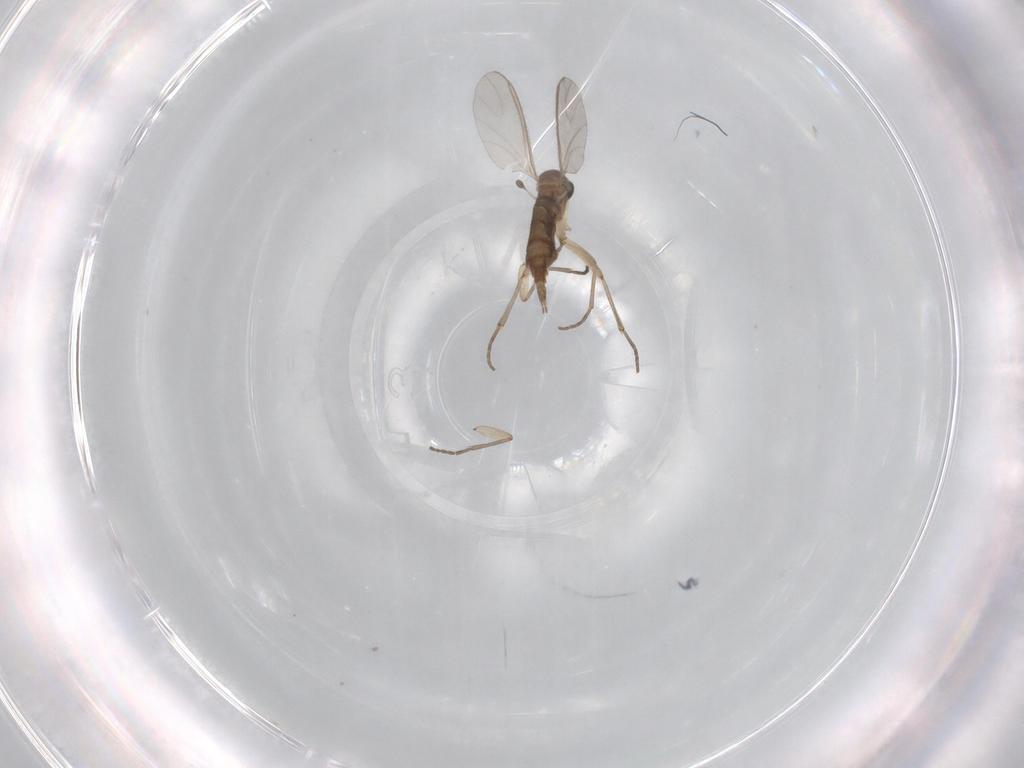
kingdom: Animalia
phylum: Arthropoda
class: Insecta
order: Diptera
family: Sciaridae
